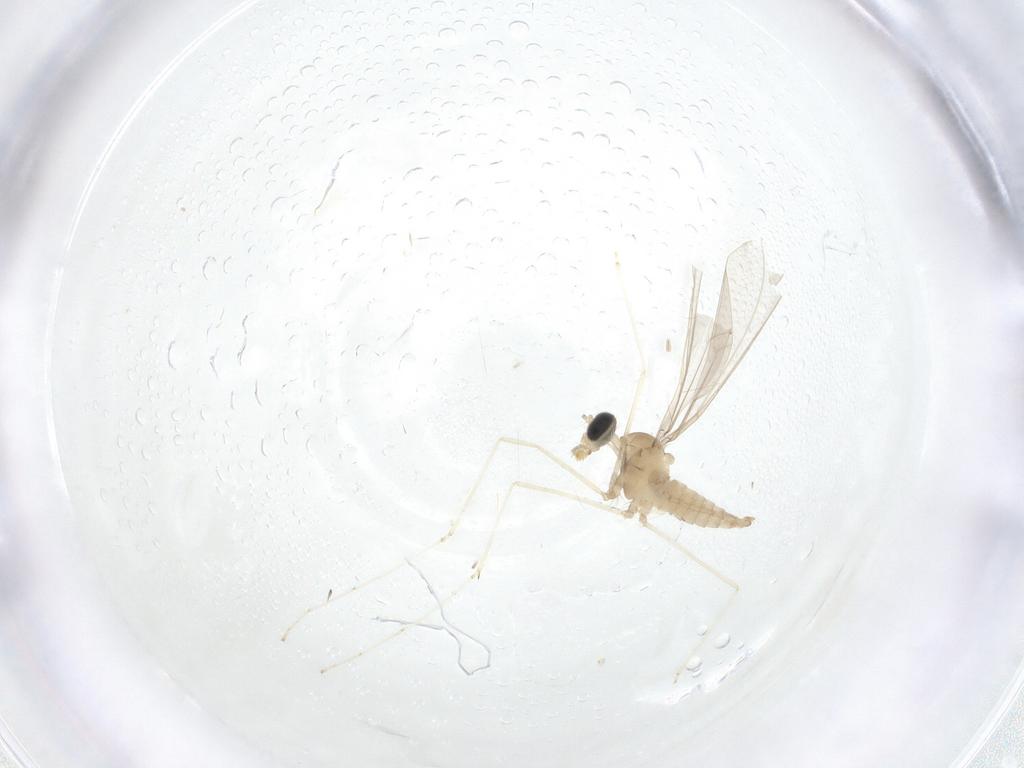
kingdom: Animalia
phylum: Arthropoda
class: Insecta
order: Diptera
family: Cecidomyiidae
